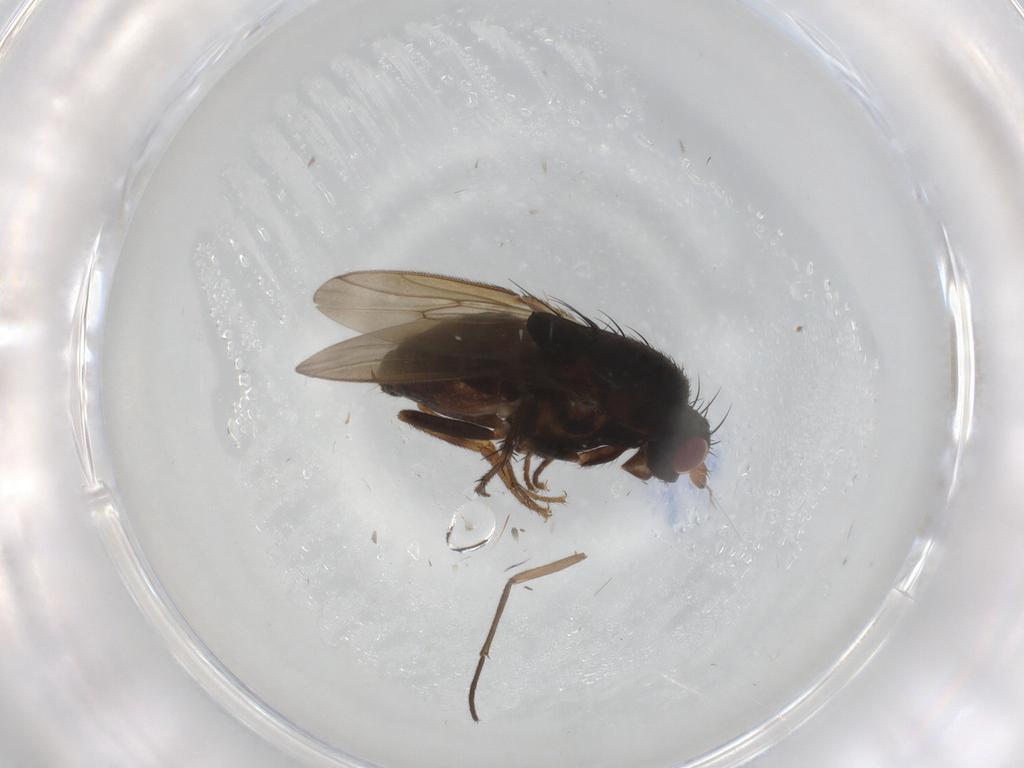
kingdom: Animalia
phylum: Arthropoda
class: Insecta
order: Diptera
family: Sphaeroceridae
